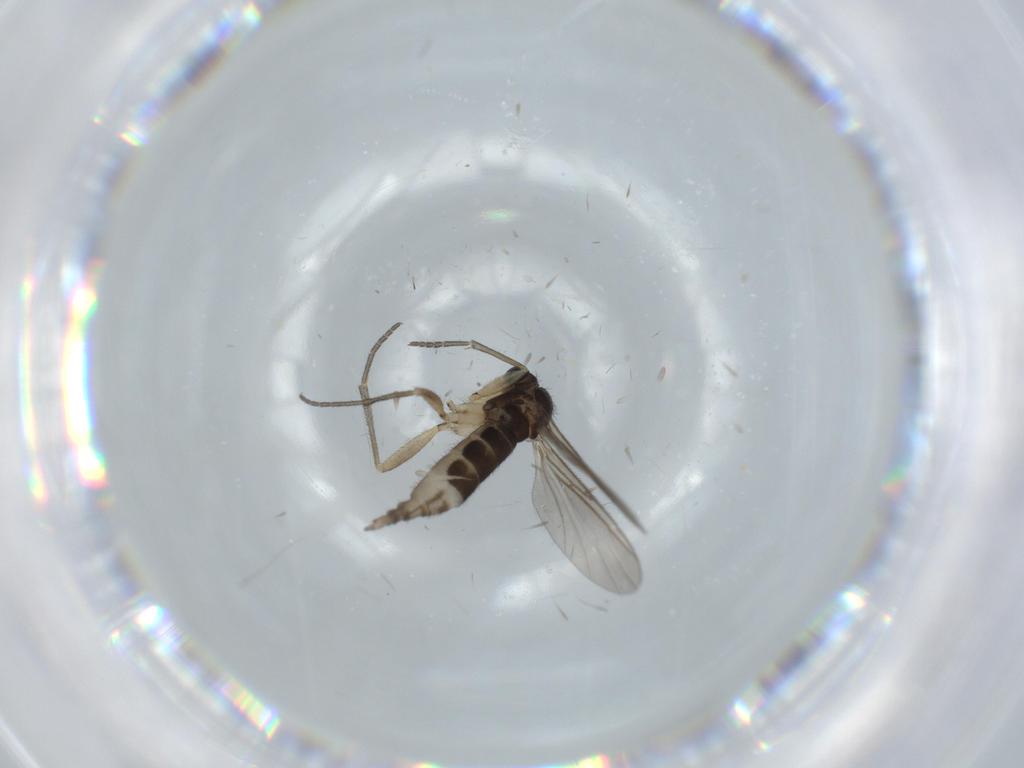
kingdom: Animalia
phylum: Arthropoda
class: Insecta
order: Diptera
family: Sciaridae
